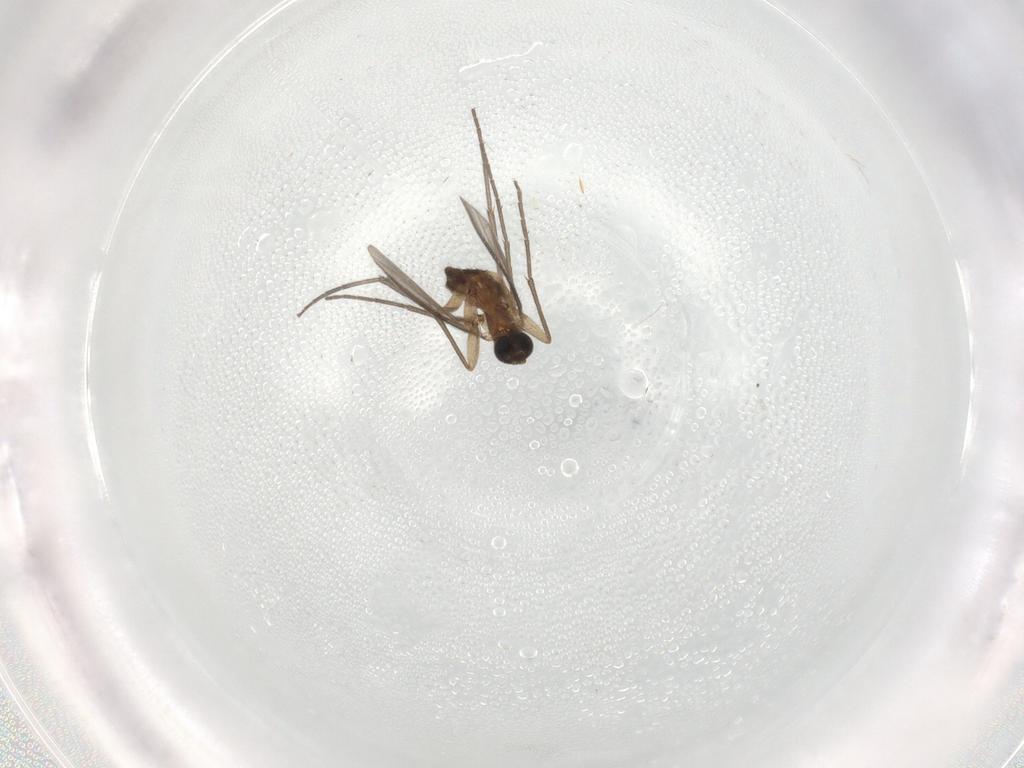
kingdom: Animalia
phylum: Arthropoda
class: Insecta
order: Diptera
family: Sciaridae
